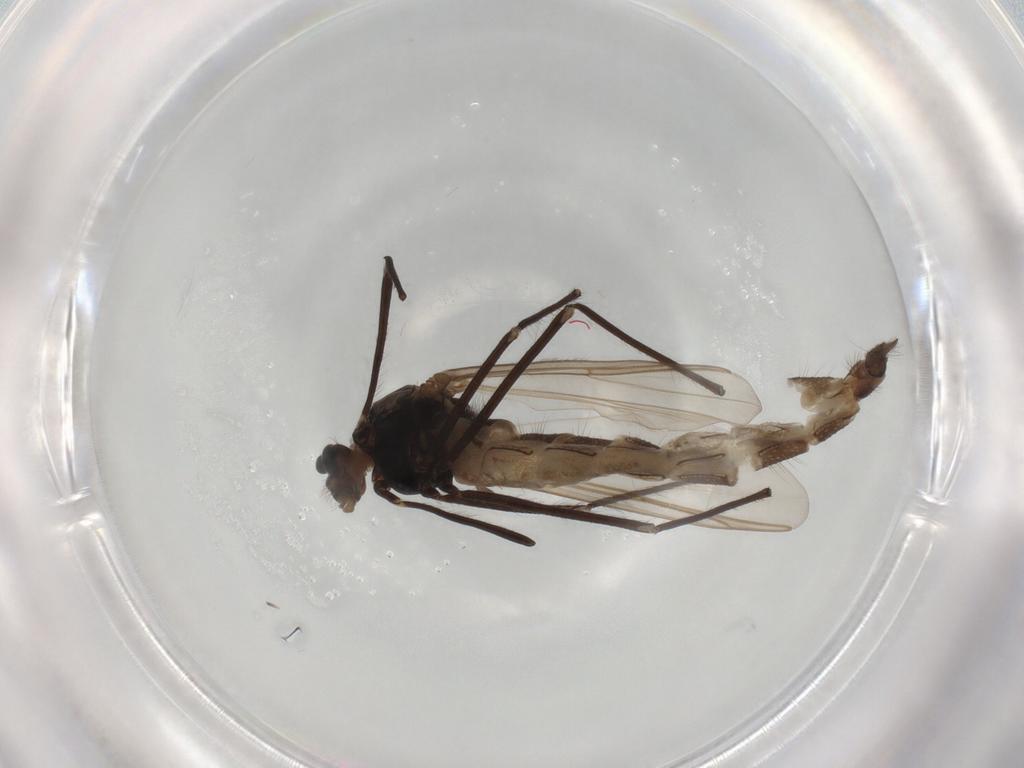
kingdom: Animalia
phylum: Arthropoda
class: Insecta
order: Diptera
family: Chironomidae
